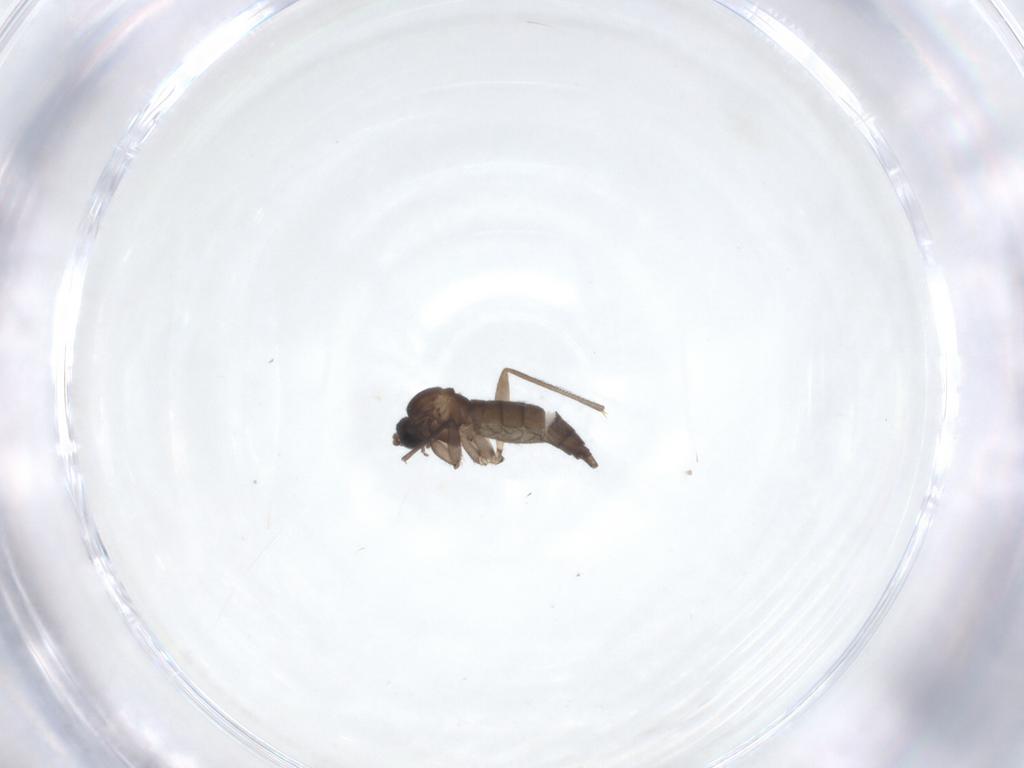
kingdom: Animalia
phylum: Arthropoda
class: Insecta
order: Diptera
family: Sciaridae
